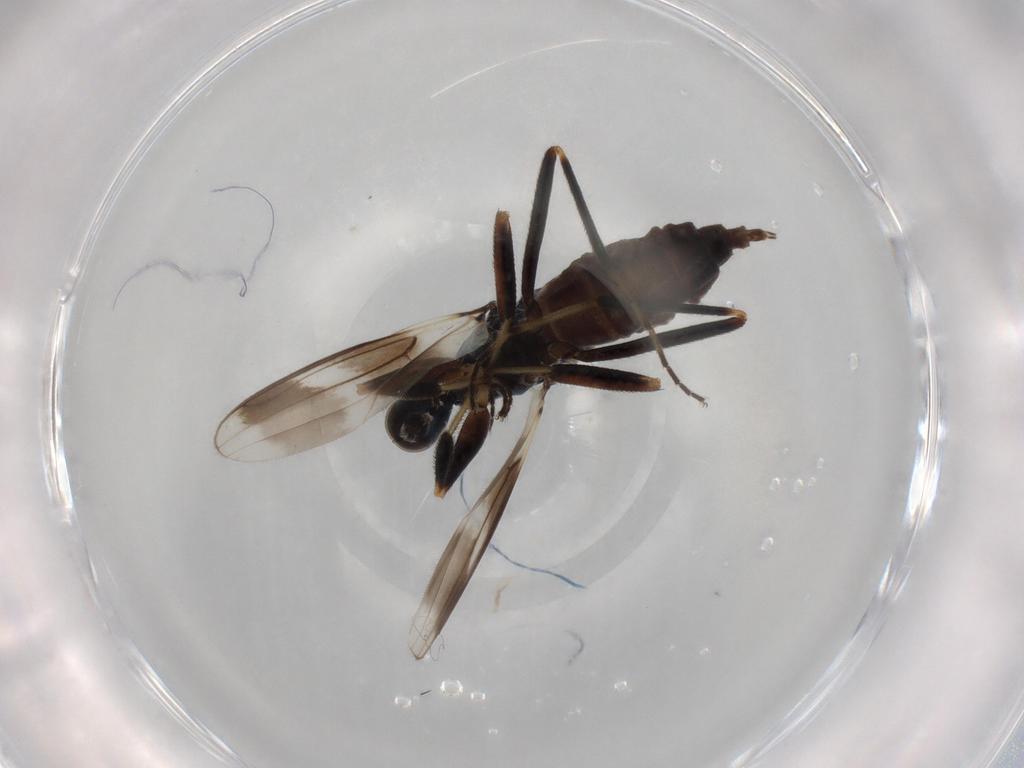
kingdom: Animalia
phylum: Arthropoda
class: Insecta
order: Diptera
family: Hybotidae
